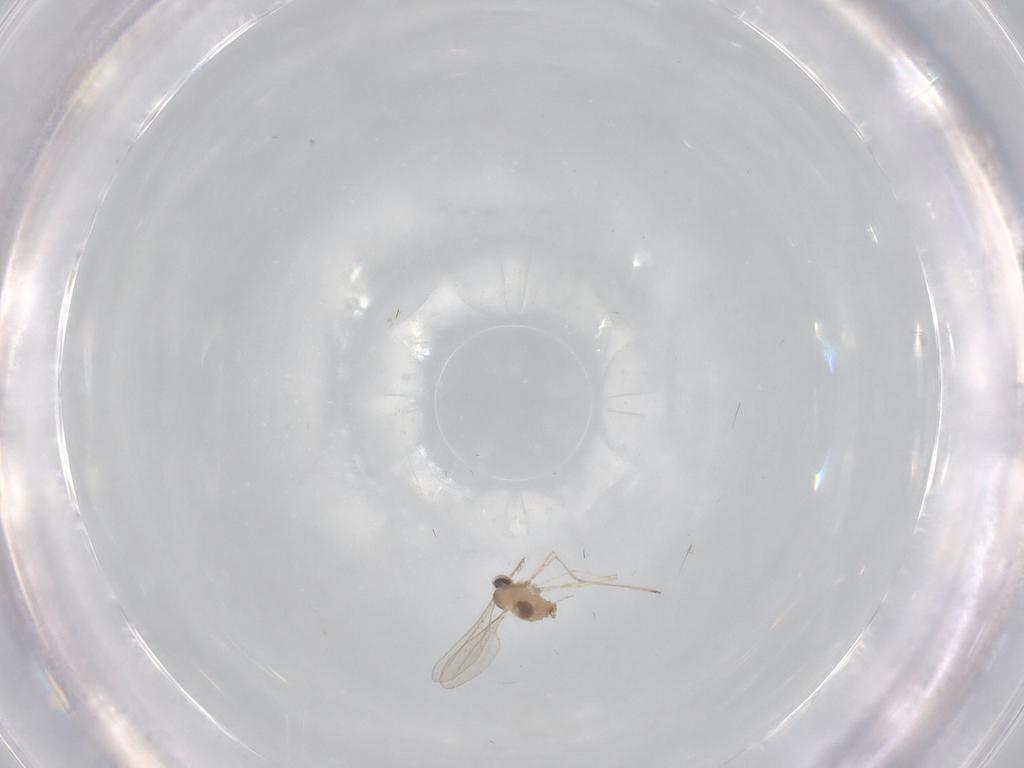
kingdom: Animalia
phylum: Arthropoda
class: Insecta
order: Diptera
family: Cecidomyiidae
